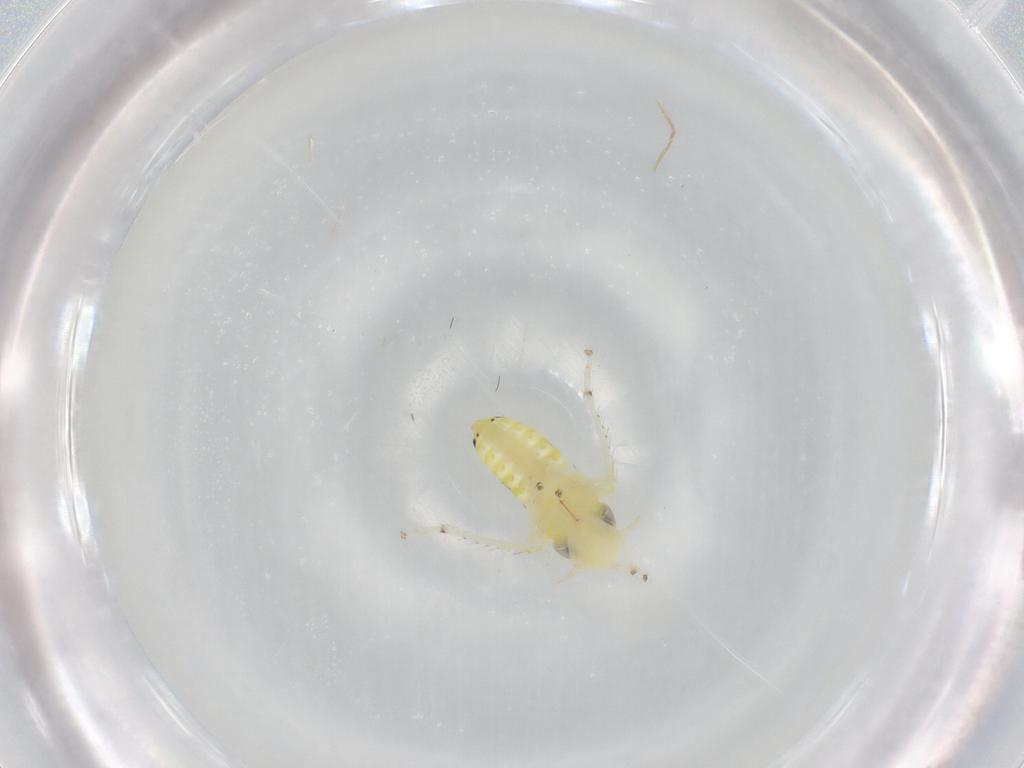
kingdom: Animalia
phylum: Arthropoda
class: Insecta
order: Hemiptera
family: Cicadellidae
